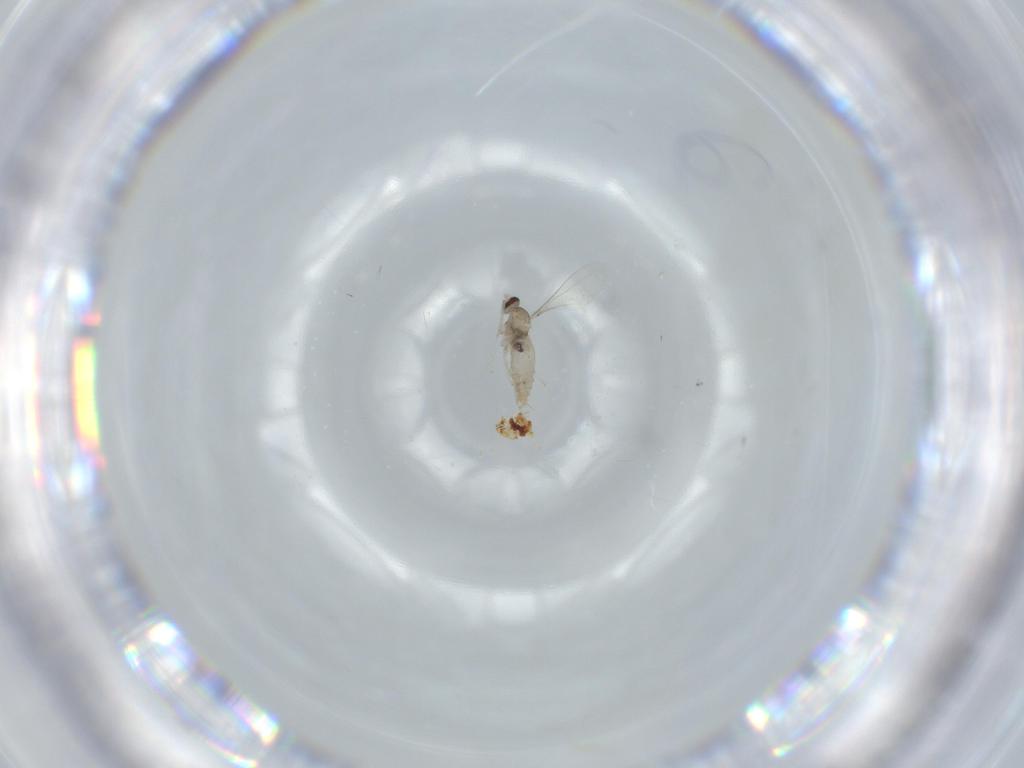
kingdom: Animalia
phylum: Arthropoda
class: Insecta
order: Diptera
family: Cecidomyiidae
